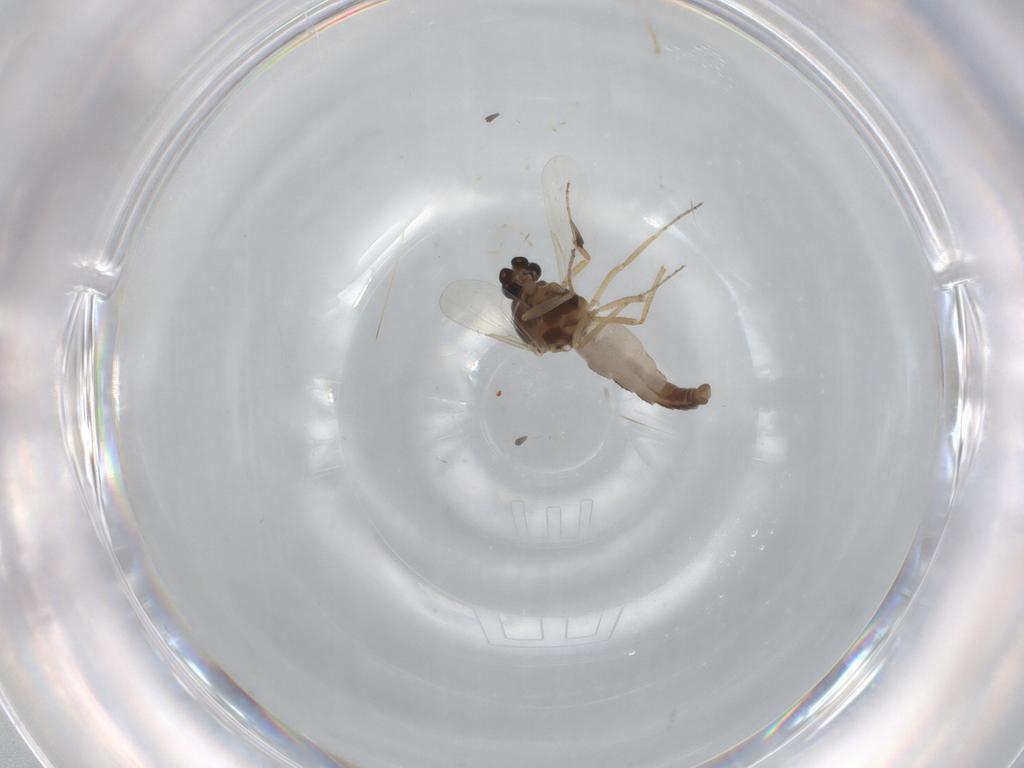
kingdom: Animalia
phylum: Arthropoda
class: Insecta
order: Diptera
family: Ceratopogonidae
